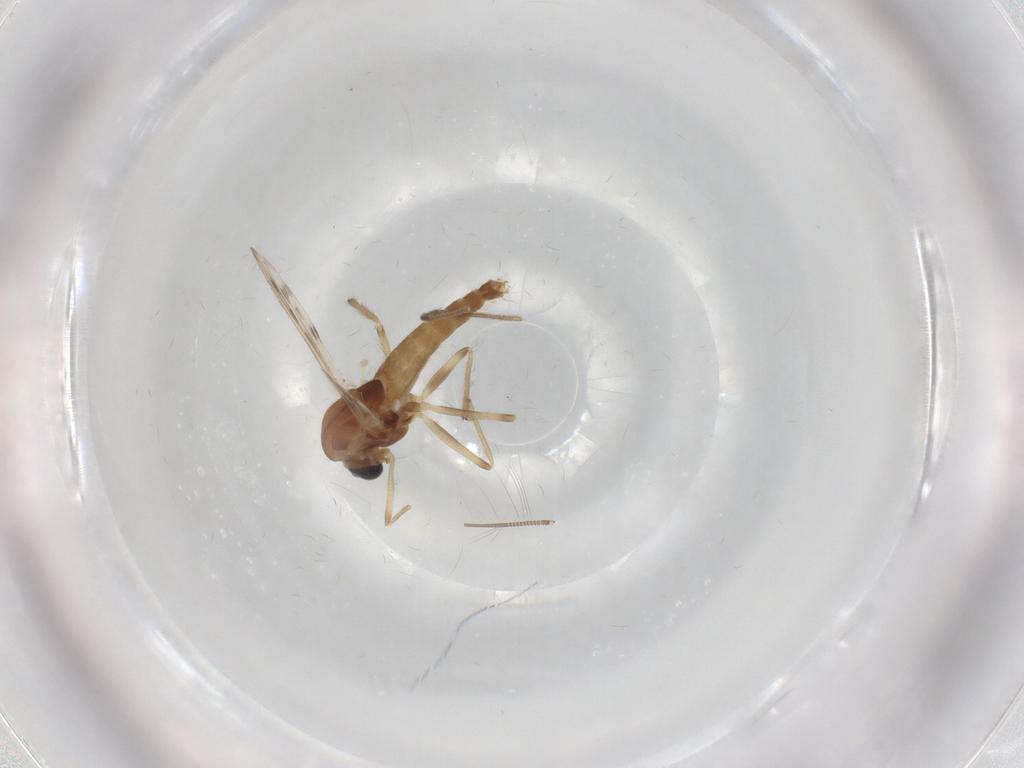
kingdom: Animalia
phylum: Arthropoda
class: Insecta
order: Diptera
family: Chironomidae
